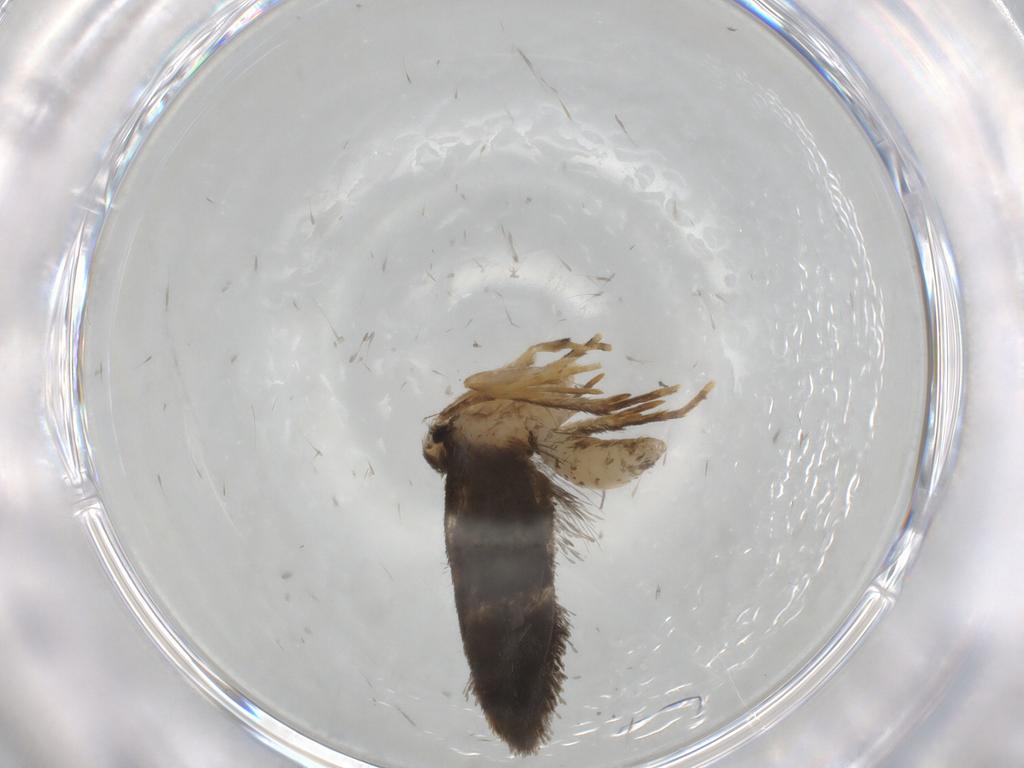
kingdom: Animalia
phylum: Arthropoda
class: Insecta
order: Lepidoptera
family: Psychidae
